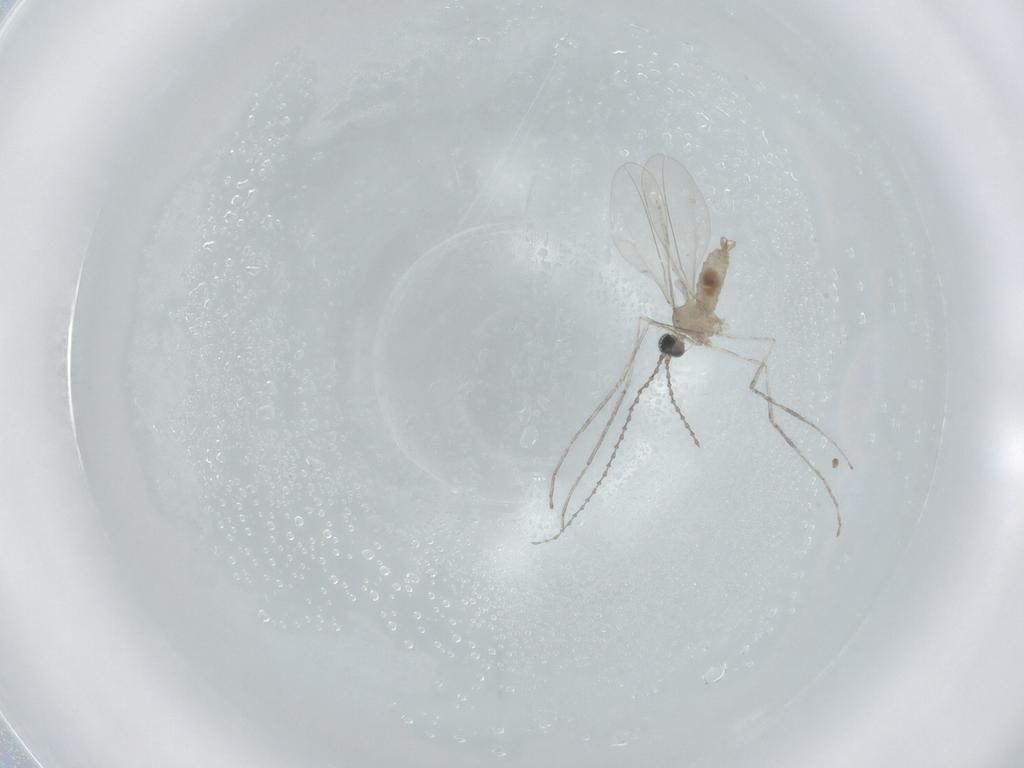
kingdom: Animalia
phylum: Arthropoda
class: Insecta
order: Diptera
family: Cecidomyiidae
